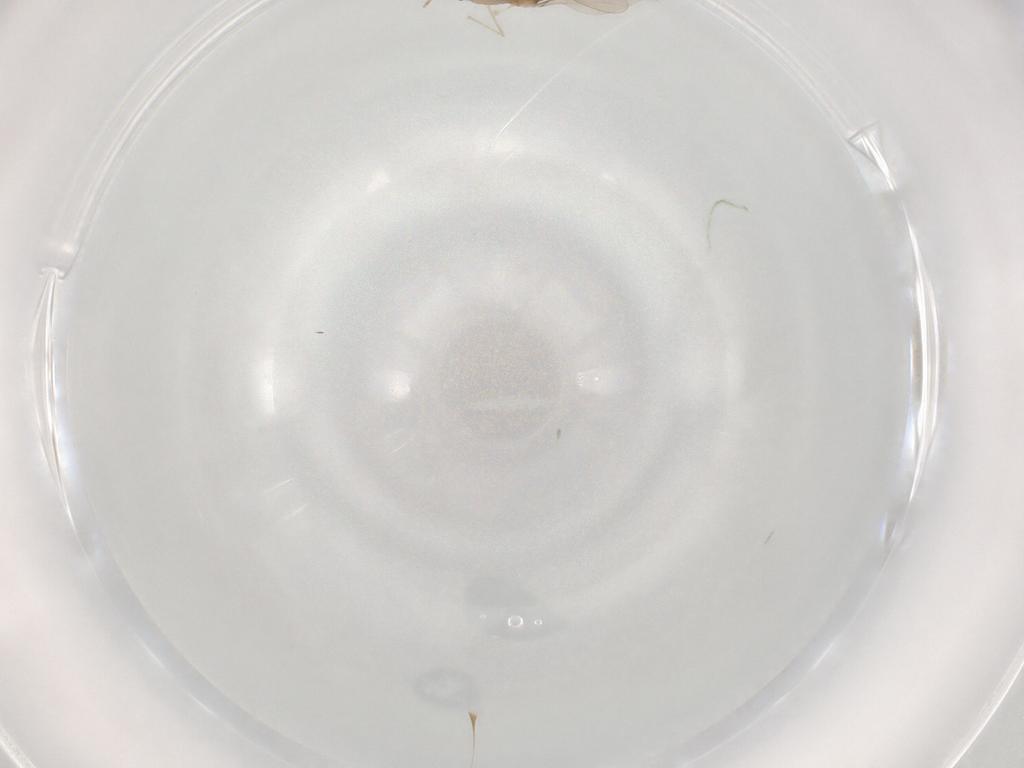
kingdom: Animalia
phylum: Arthropoda
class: Insecta
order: Diptera
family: Cecidomyiidae
